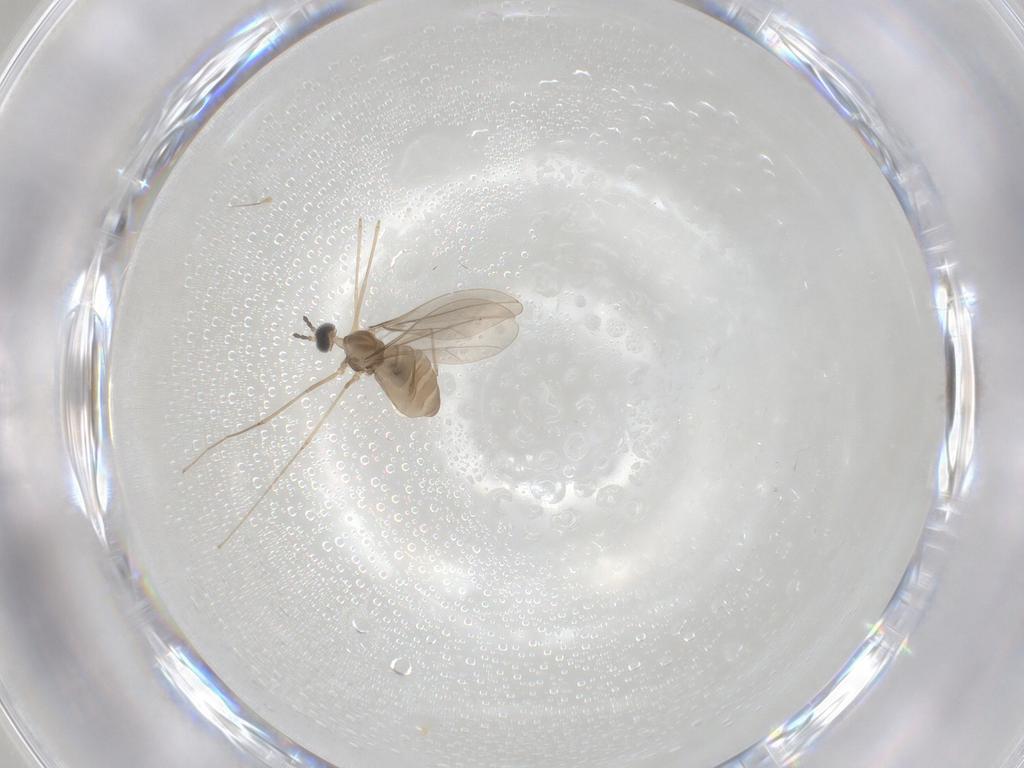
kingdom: Animalia
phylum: Arthropoda
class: Insecta
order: Diptera
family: Cecidomyiidae
